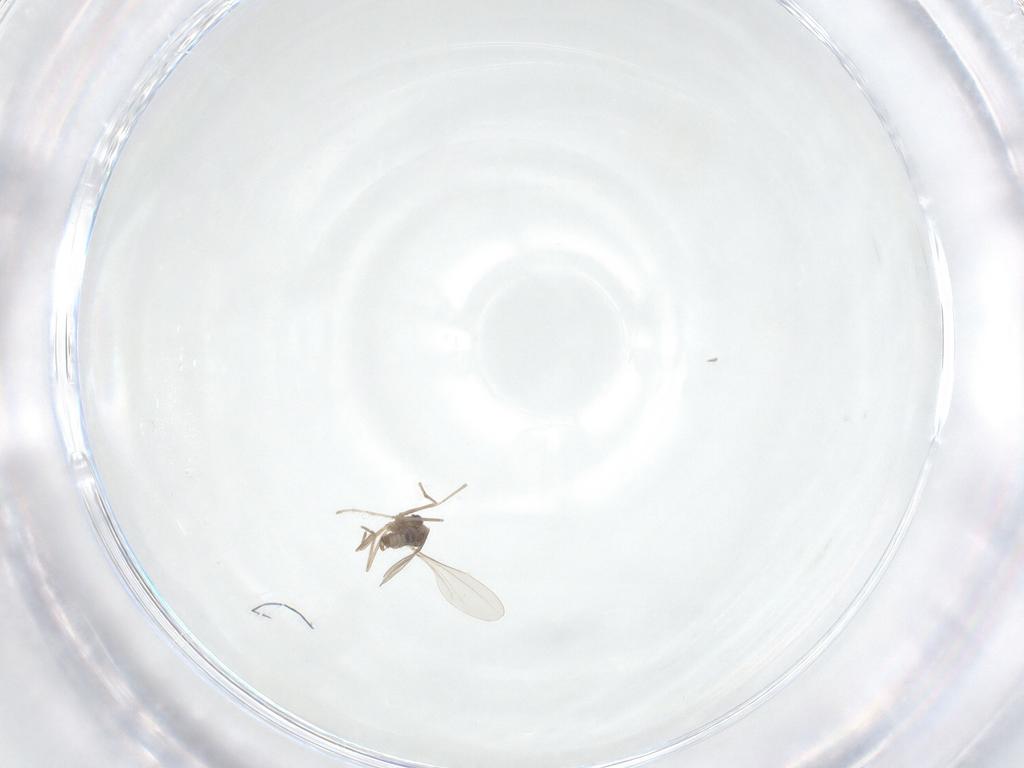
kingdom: Animalia
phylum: Arthropoda
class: Insecta
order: Diptera
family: Cecidomyiidae
